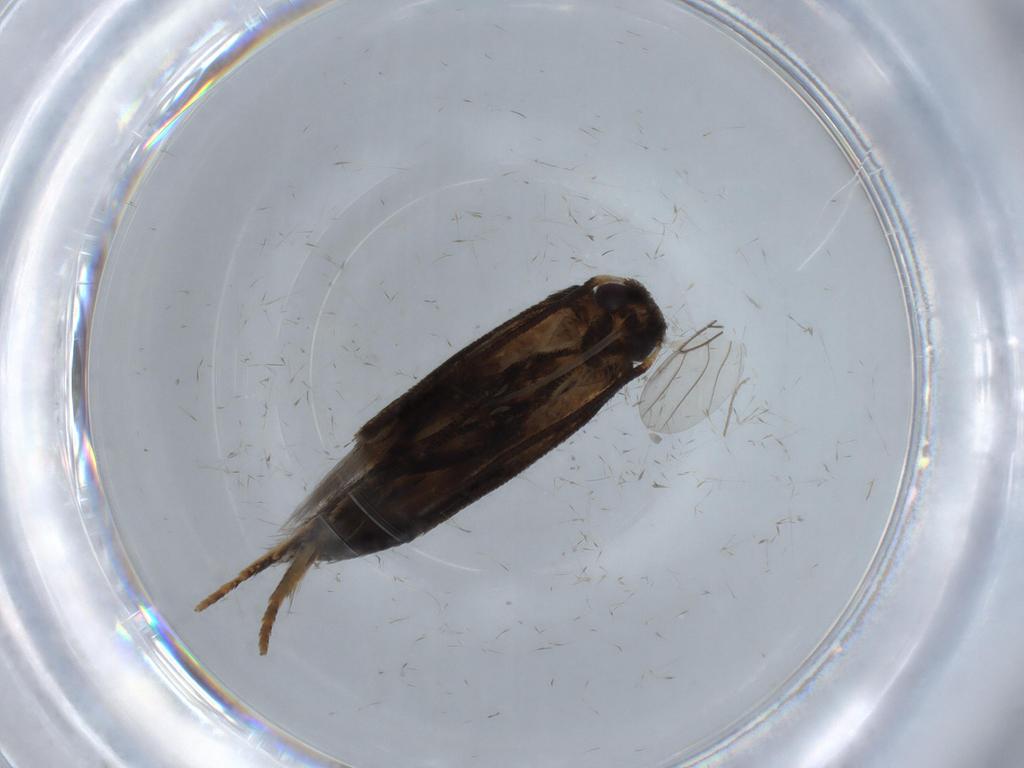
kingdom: Animalia
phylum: Arthropoda
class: Insecta
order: Lepidoptera
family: Blastobasidae
